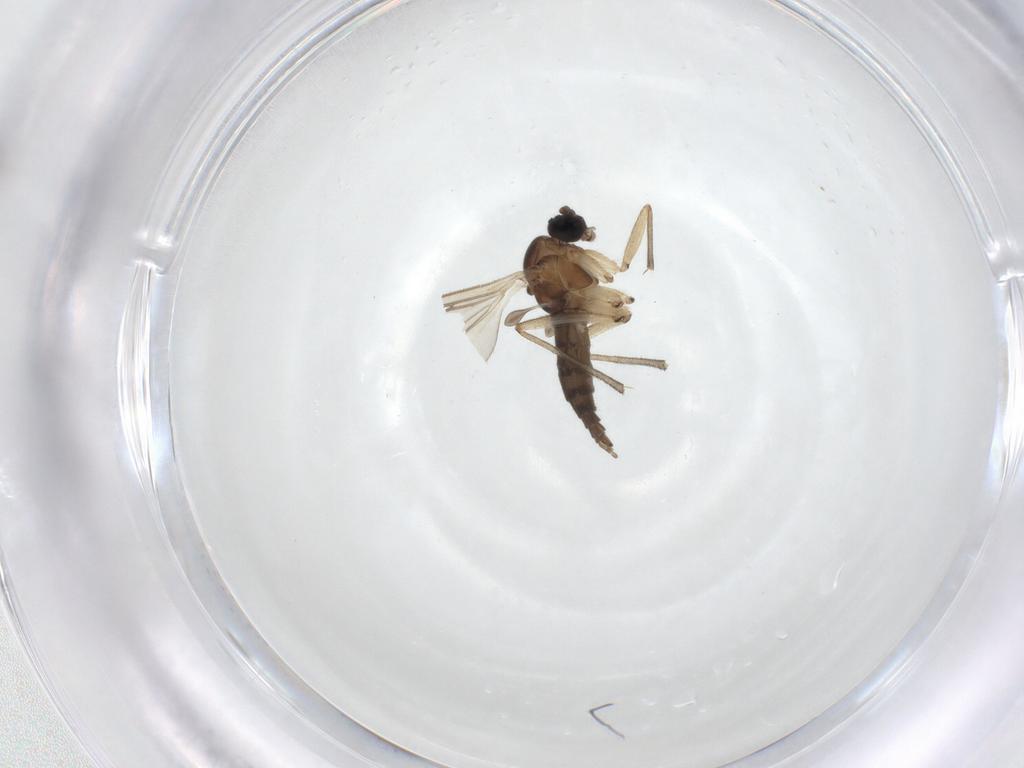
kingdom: Animalia
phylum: Arthropoda
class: Insecta
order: Diptera
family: Sciaridae
